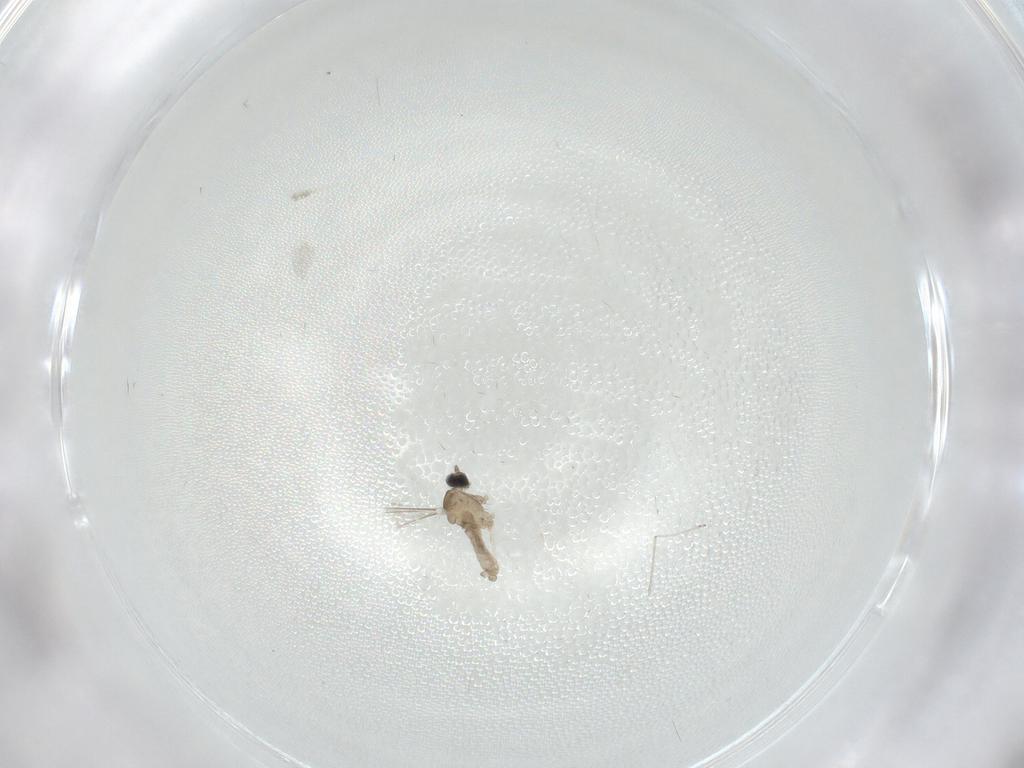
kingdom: Animalia
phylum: Arthropoda
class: Insecta
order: Diptera
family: Cecidomyiidae
